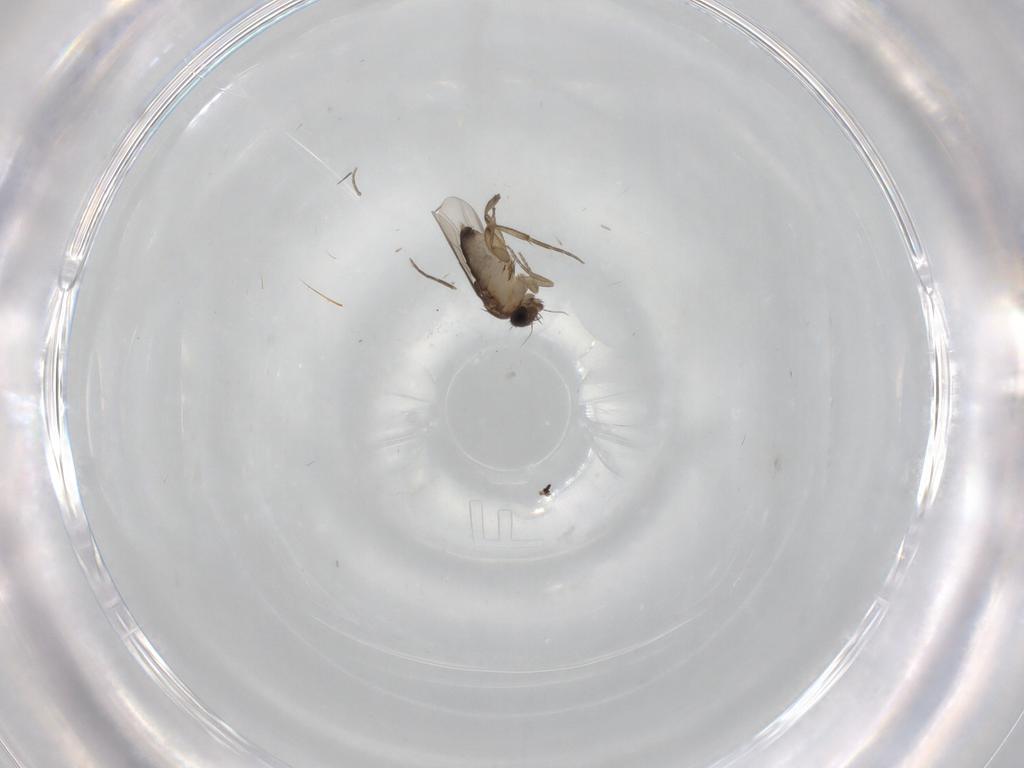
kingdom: Animalia
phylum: Arthropoda
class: Insecta
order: Diptera
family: Phoridae
